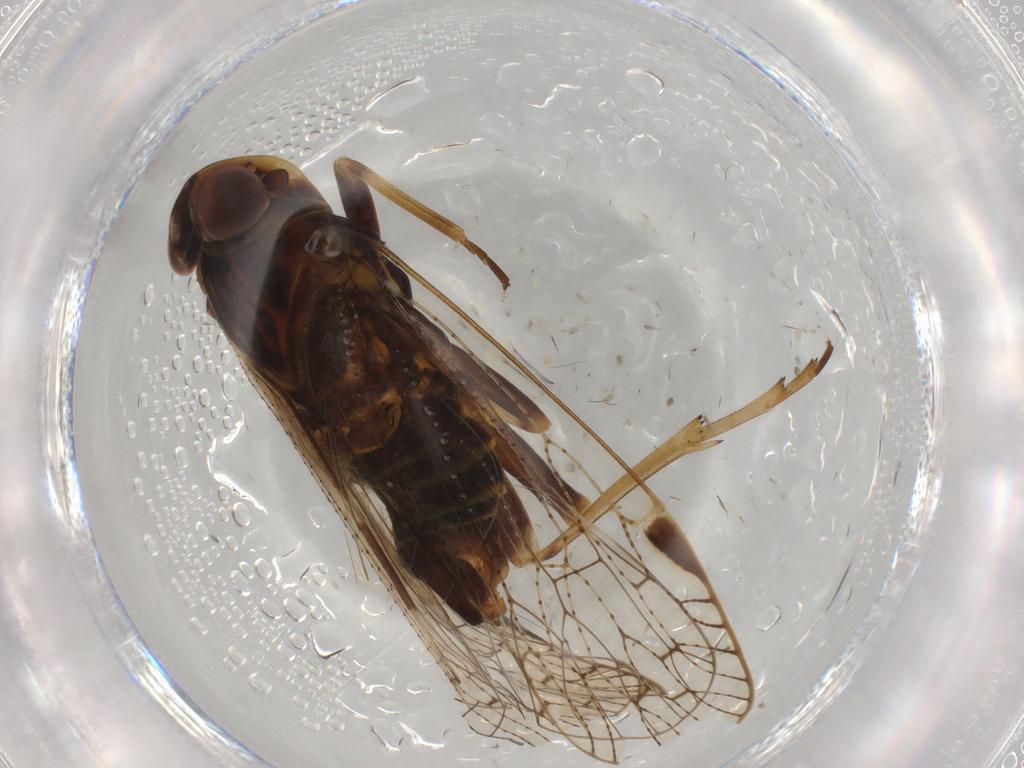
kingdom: Animalia
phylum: Arthropoda
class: Insecta
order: Hemiptera
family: Cixiidae
